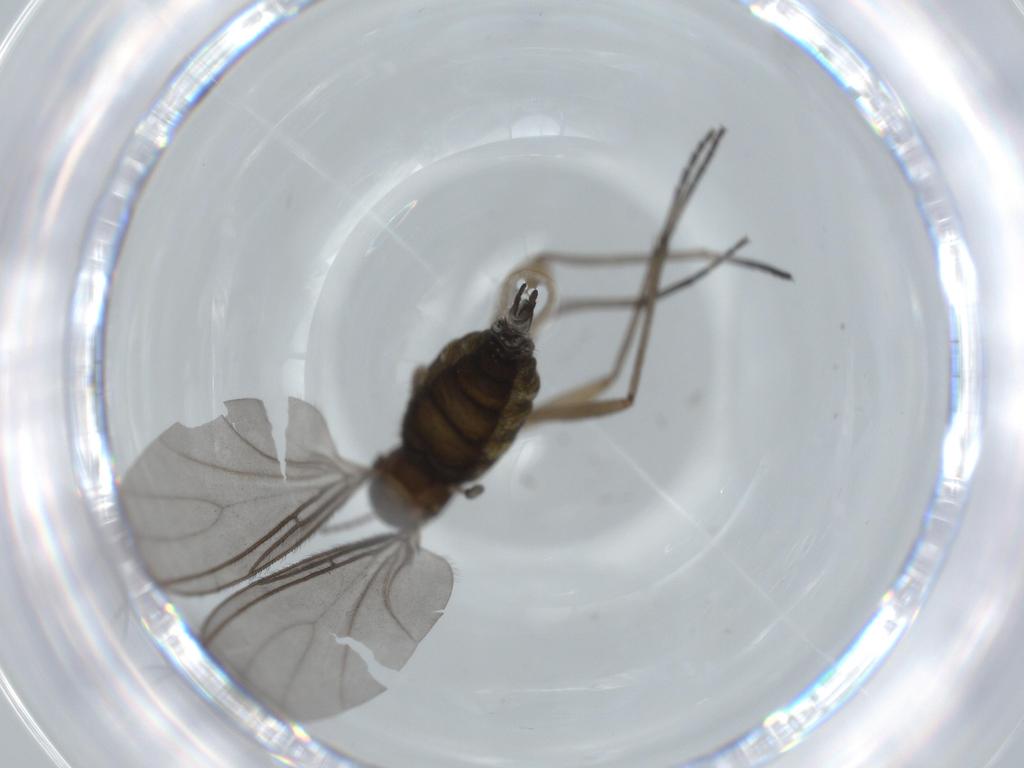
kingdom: Animalia
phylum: Arthropoda
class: Insecta
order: Diptera
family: Sciaridae
